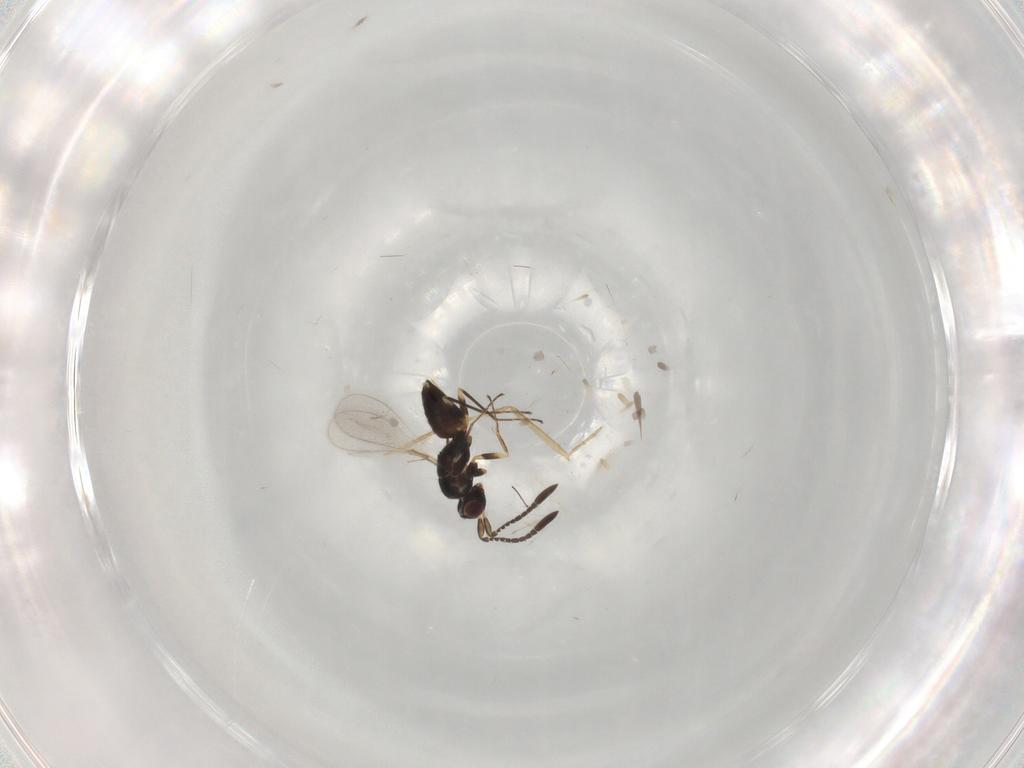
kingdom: Animalia
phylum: Arthropoda
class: Insecta
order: Hymenoptera
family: Mymaridae
